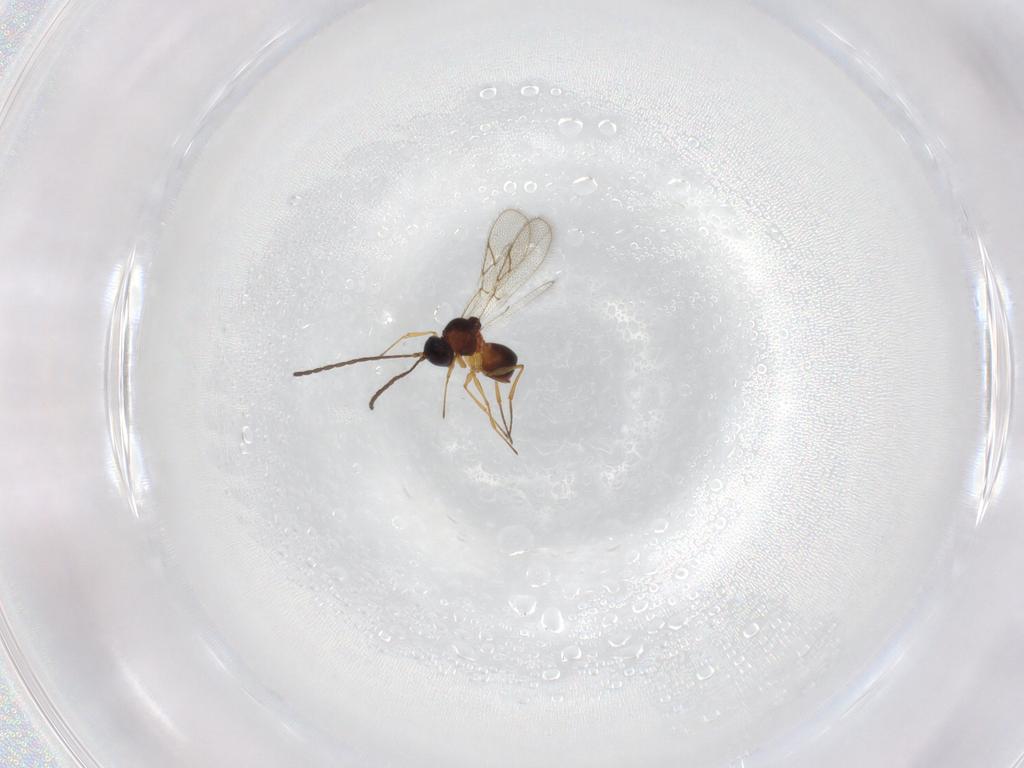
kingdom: Animalia
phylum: Arthropoda
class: Insecta
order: Hymenoptera
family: Figitidae
